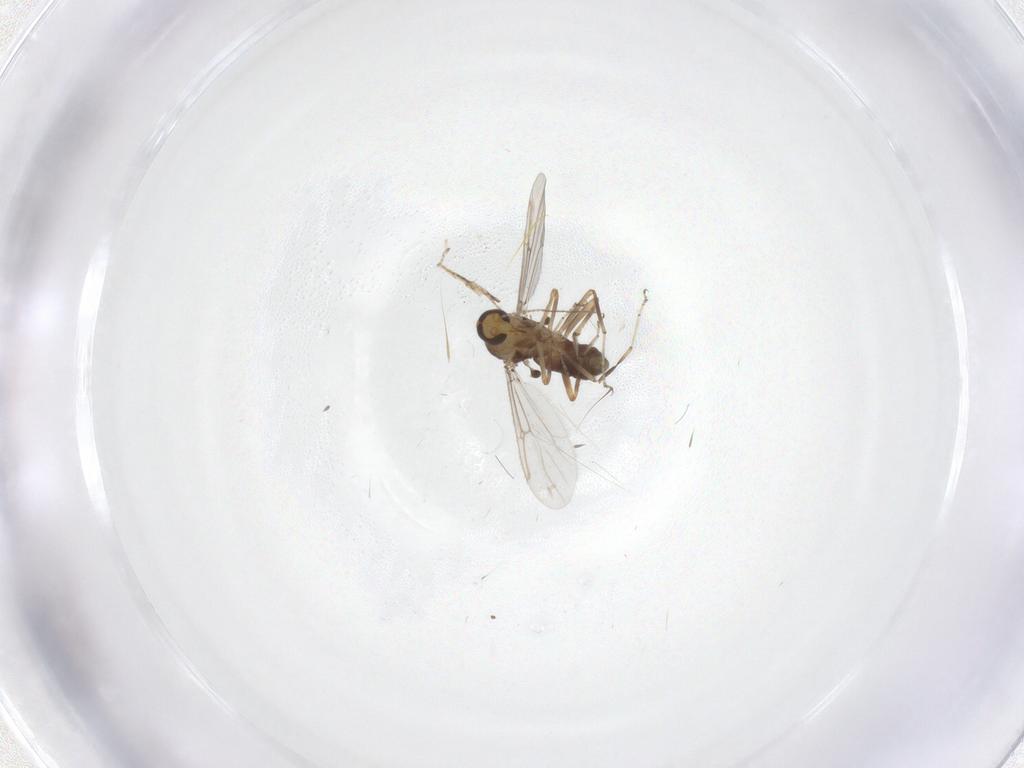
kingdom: Animalia
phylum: Arthropoda
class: Insecta
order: Diptera
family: Ceratopogonidae
